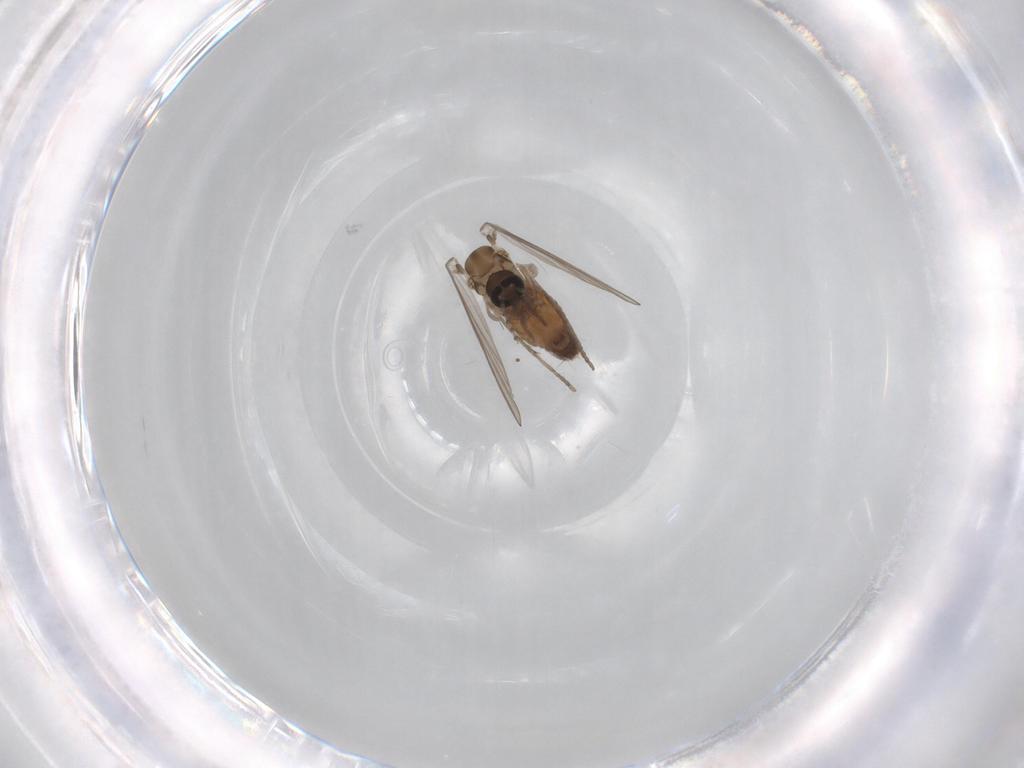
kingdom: Animalia
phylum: Arthropoda
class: Insecta
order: Diptera
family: Psychodidae
